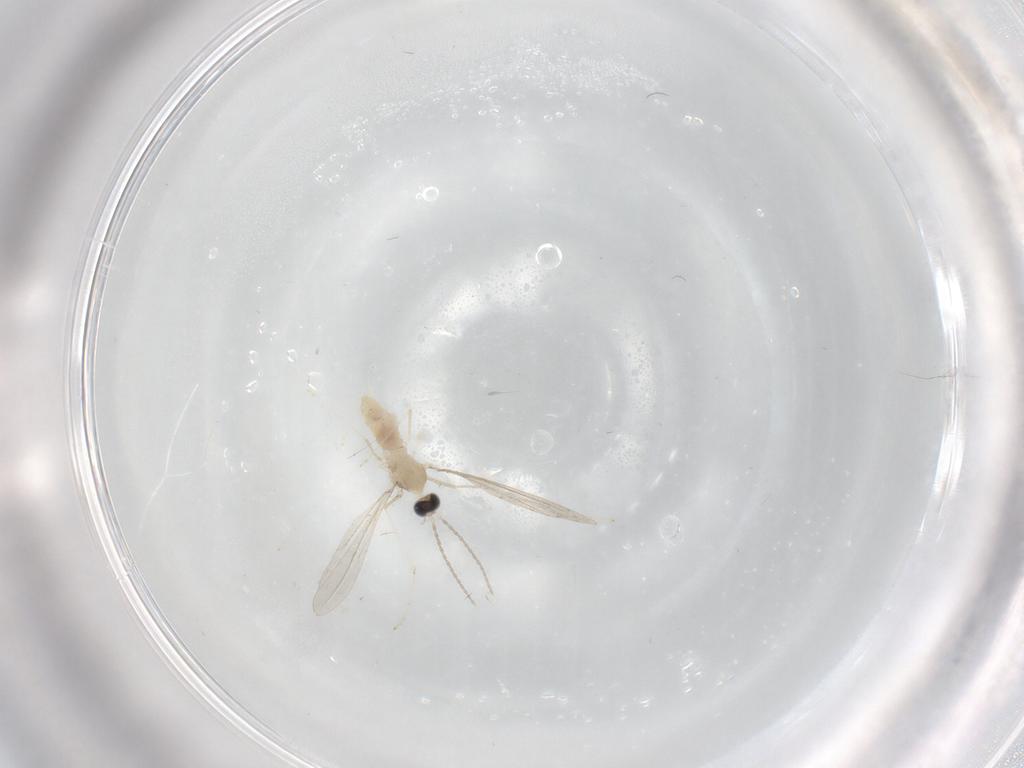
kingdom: Animalia
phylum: Arthropoda
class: Insecta
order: Diptera
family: Cecidomyiidae
